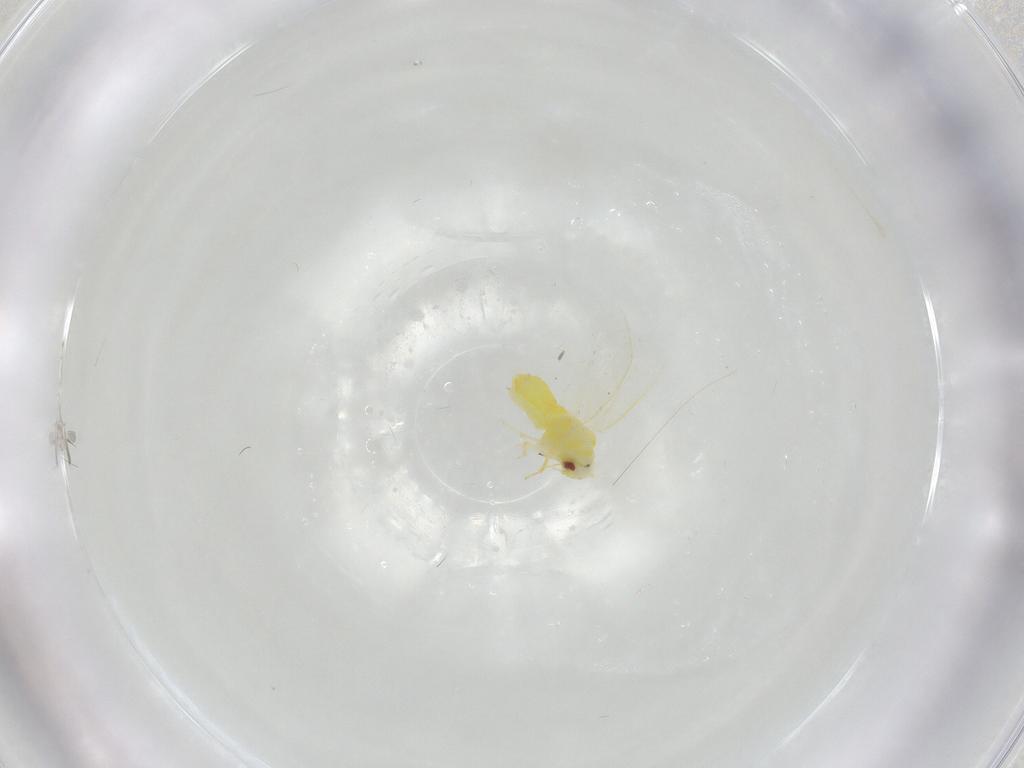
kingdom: Animalia
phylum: Arthropoda
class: Insecta
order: Hemiptera
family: Aleyrodidae
